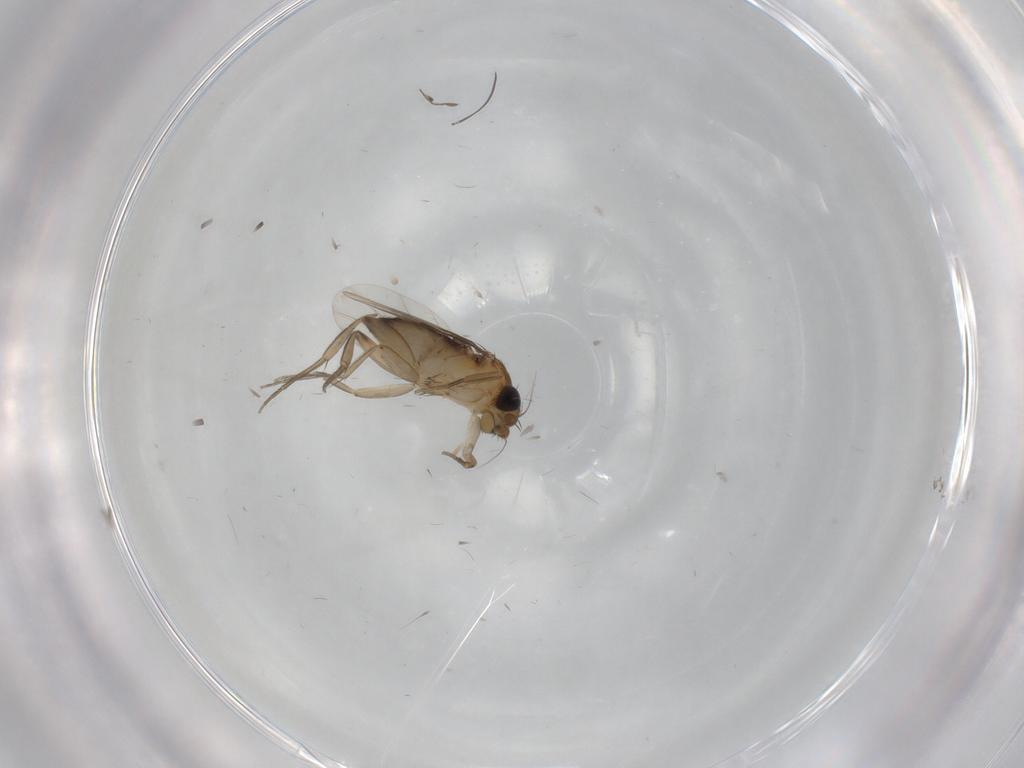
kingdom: Animalia
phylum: Arthropoda
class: Insecta
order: Diptera
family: Phoridae
